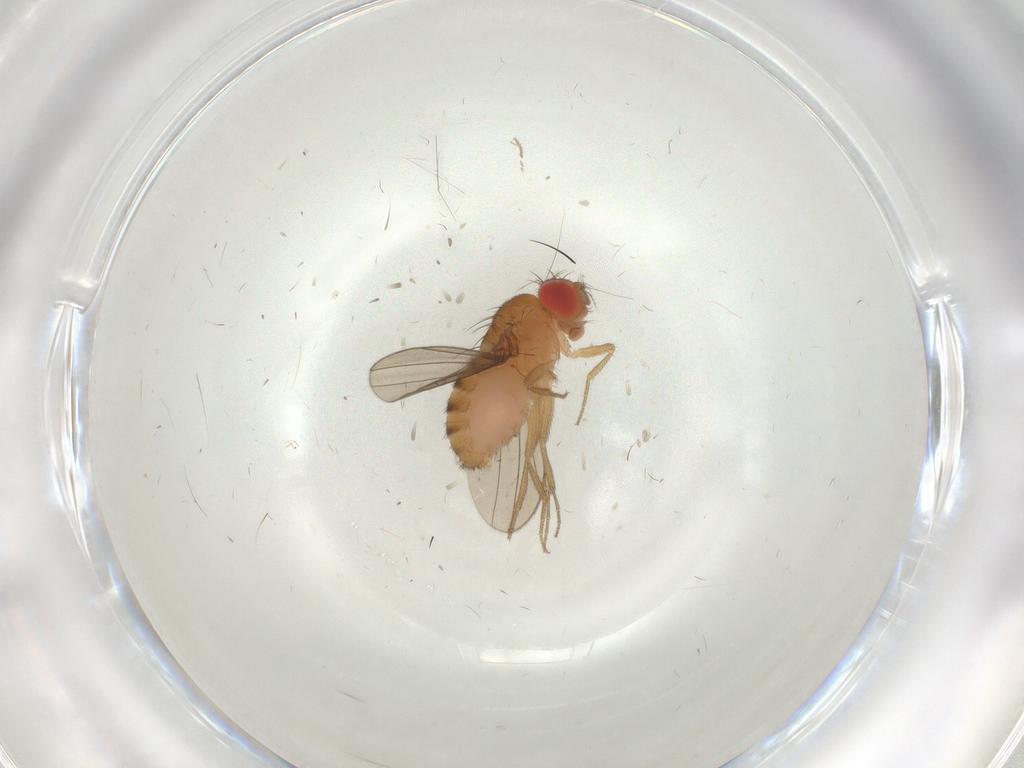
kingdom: Animalia
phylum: Arthropoda
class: Insecta
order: Diptera
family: Drosophilidae
